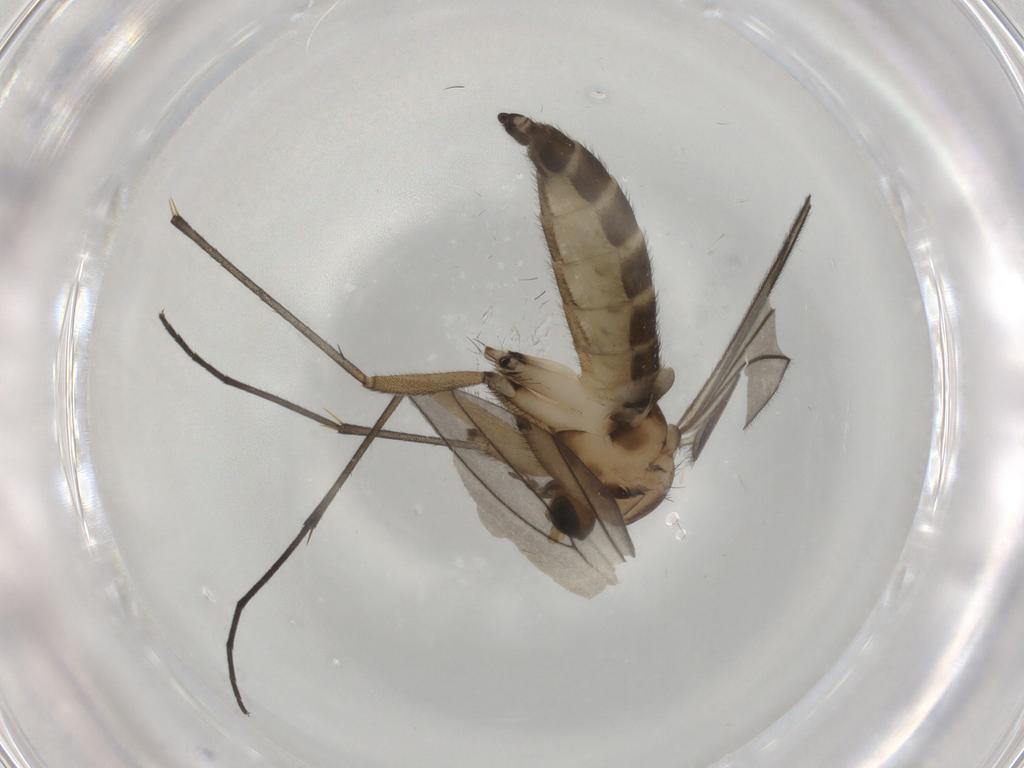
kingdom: Animalia
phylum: Arthropoda
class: Insecta
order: Diptera
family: Sciaridae
